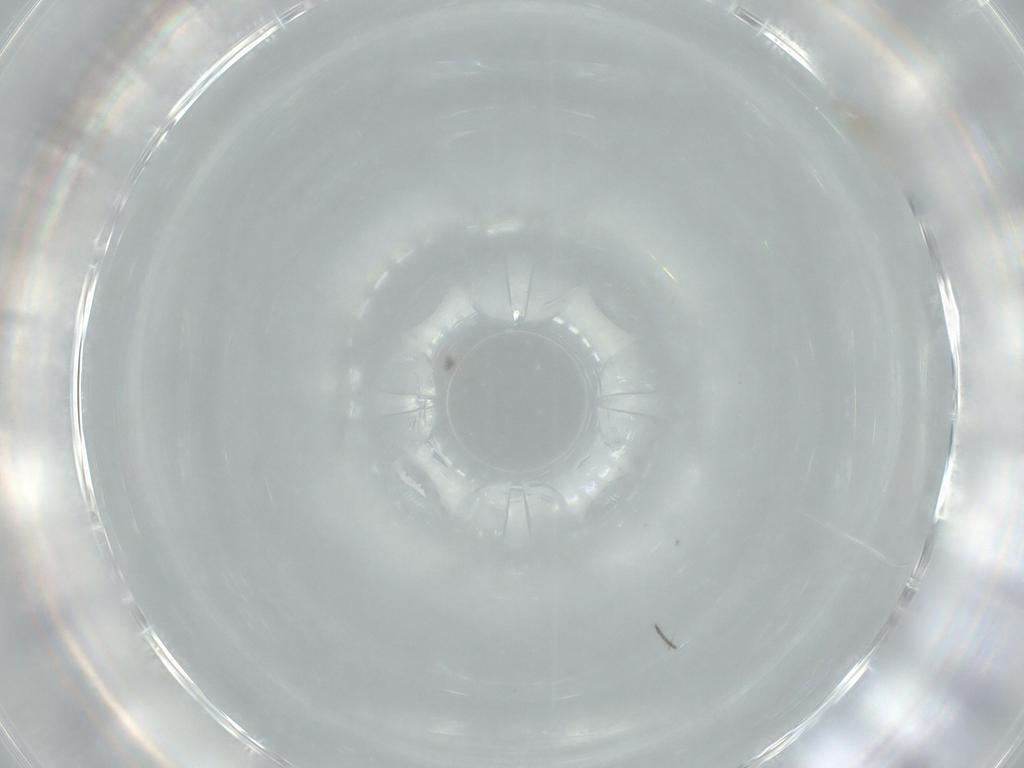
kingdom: Animalia
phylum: Arthropoda
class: Insecta
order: Diptera
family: Cecidomyiidae
